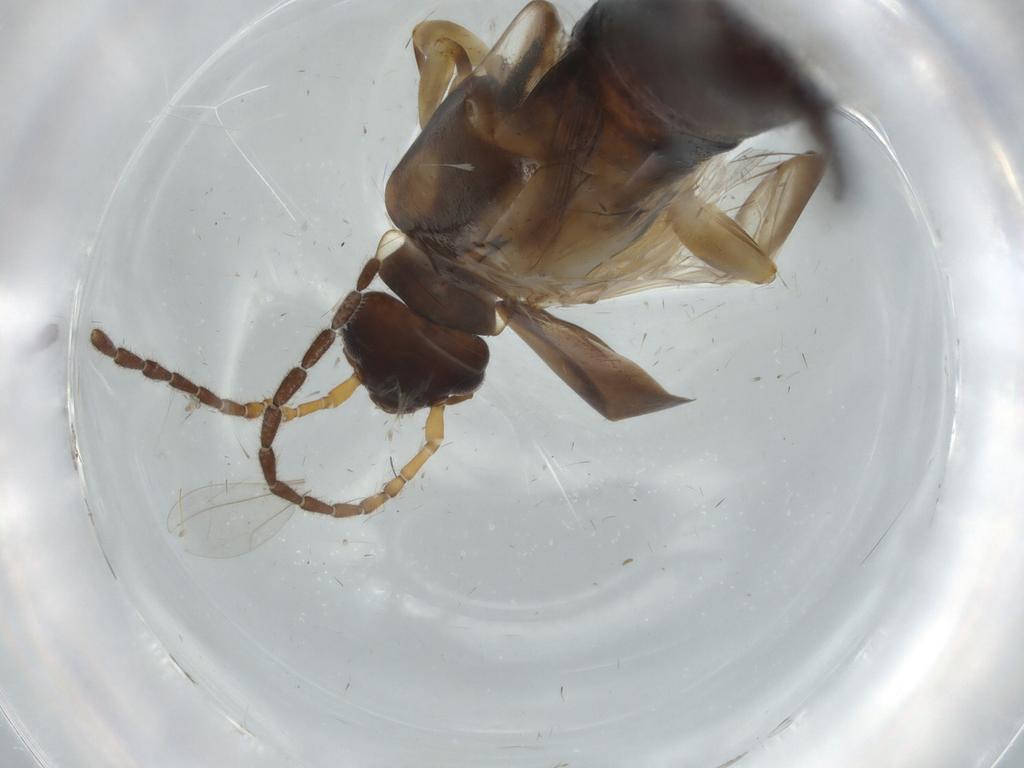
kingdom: Animalia
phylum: Arthropoda
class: Insecta
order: Dermaptera
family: Labiduridae
